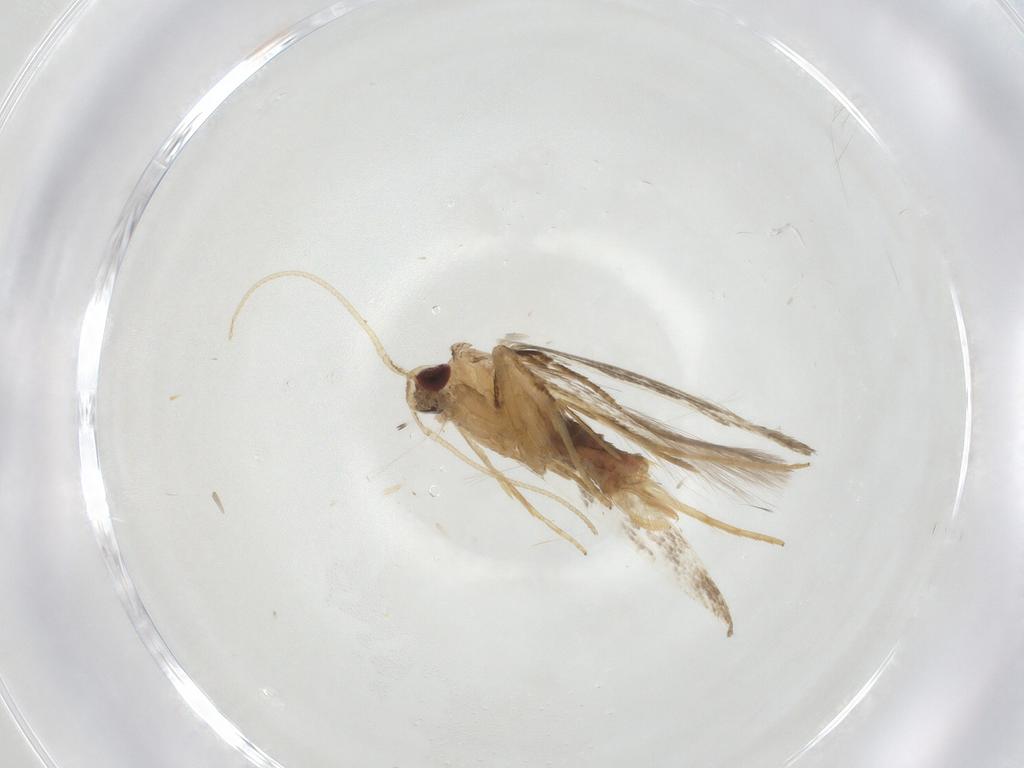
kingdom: Animalia
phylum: Arthropoda
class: Insecta
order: Lepidoptera
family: Cosmopterigidae
